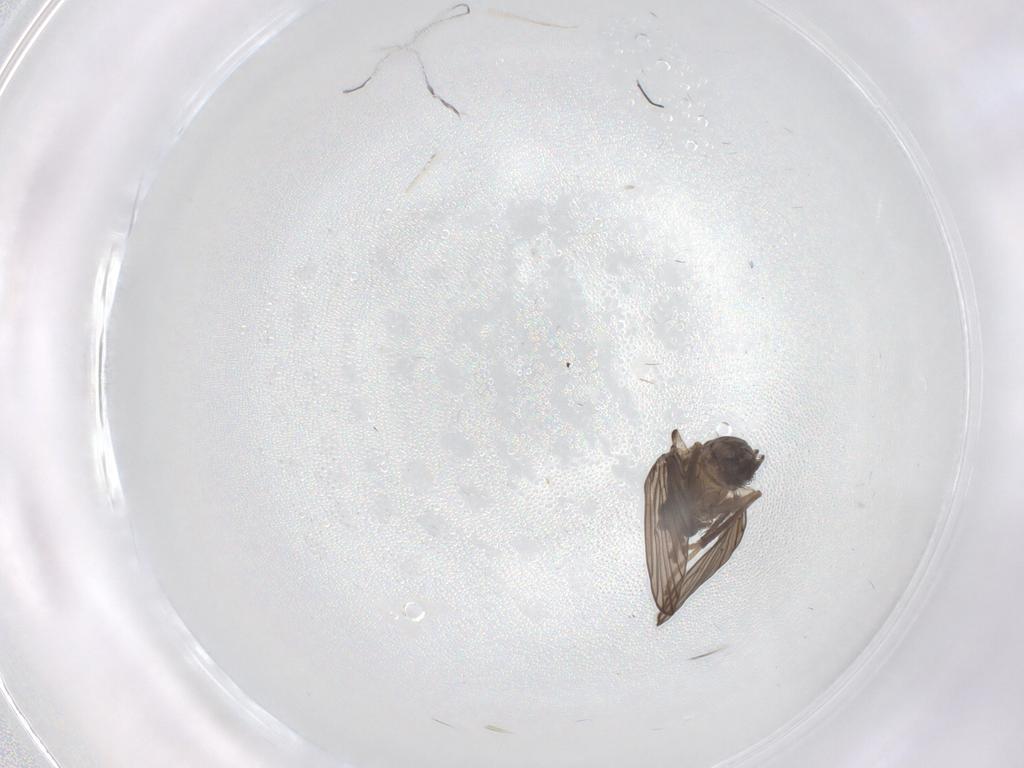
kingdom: Animalia
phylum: Arthropoda
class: Insecta
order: Diptera
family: Psychodidae
